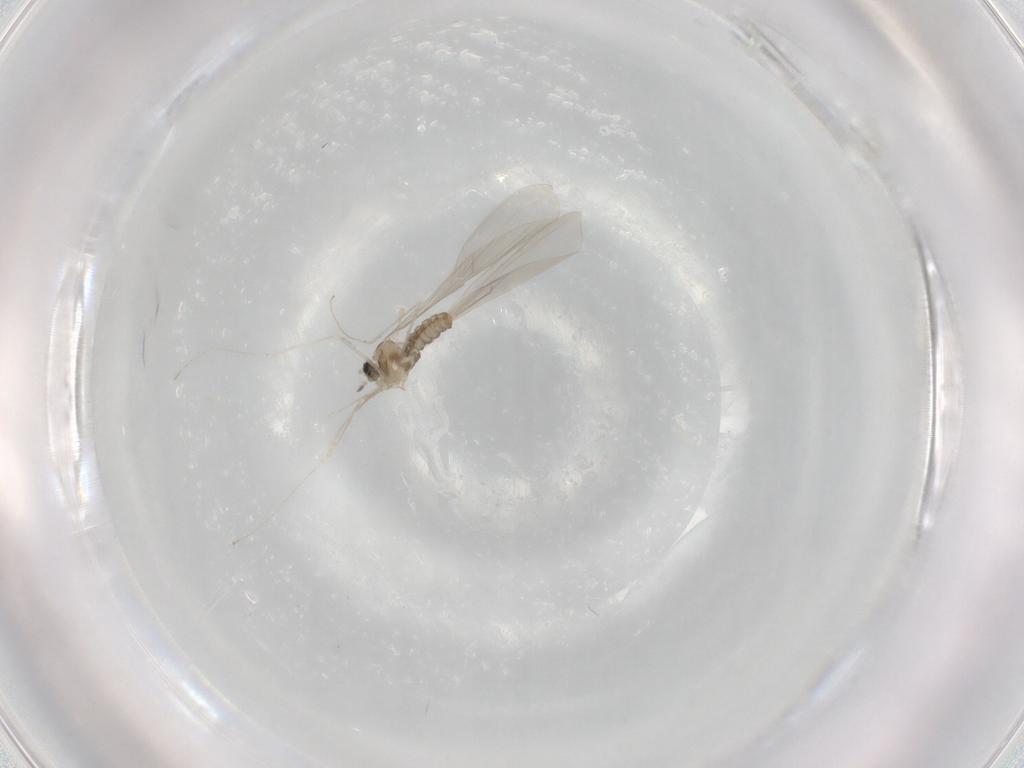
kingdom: Animalia
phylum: Arthropoda
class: Insecta
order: Diptera
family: Cecidomyiidae
